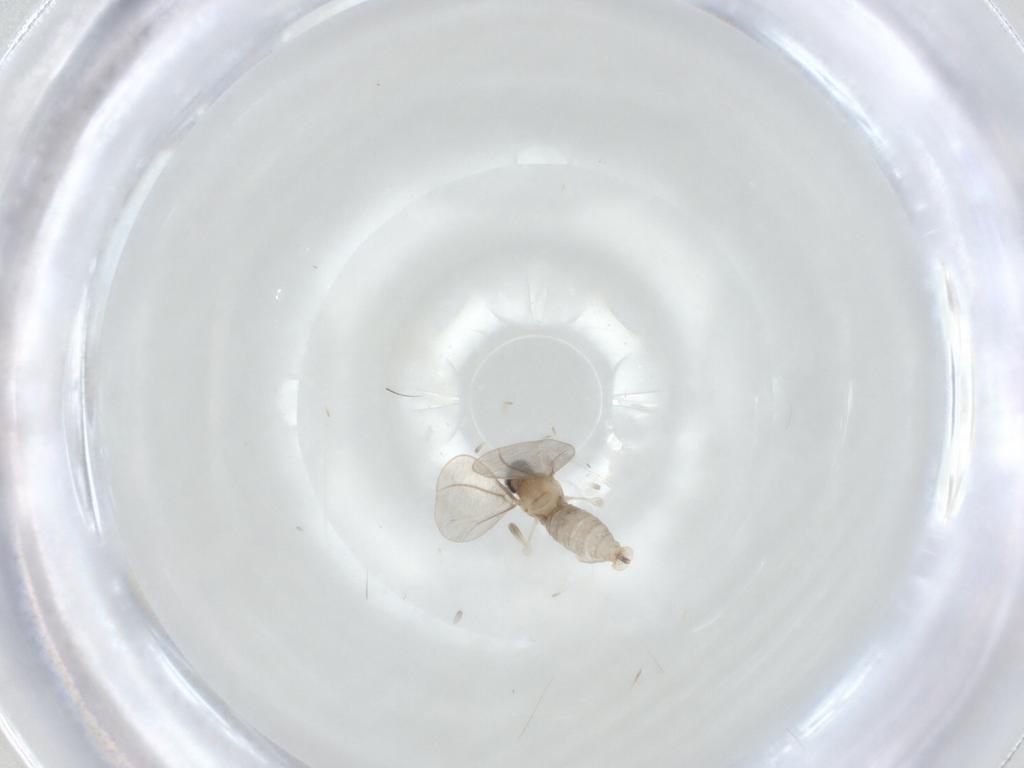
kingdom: Animalia
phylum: Arthropoda
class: Insecta
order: Diptera
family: Cecidomyiidae
